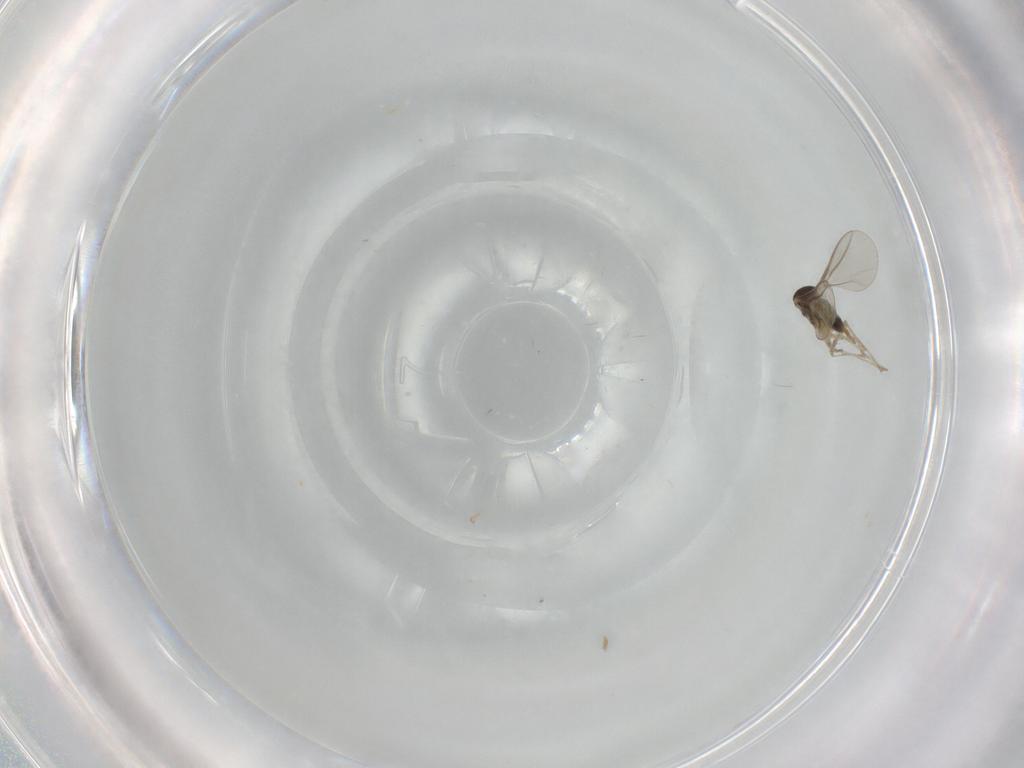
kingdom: Animalia
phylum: Arthropoda
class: Insecta
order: Diptera
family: Cecidomyiidae
